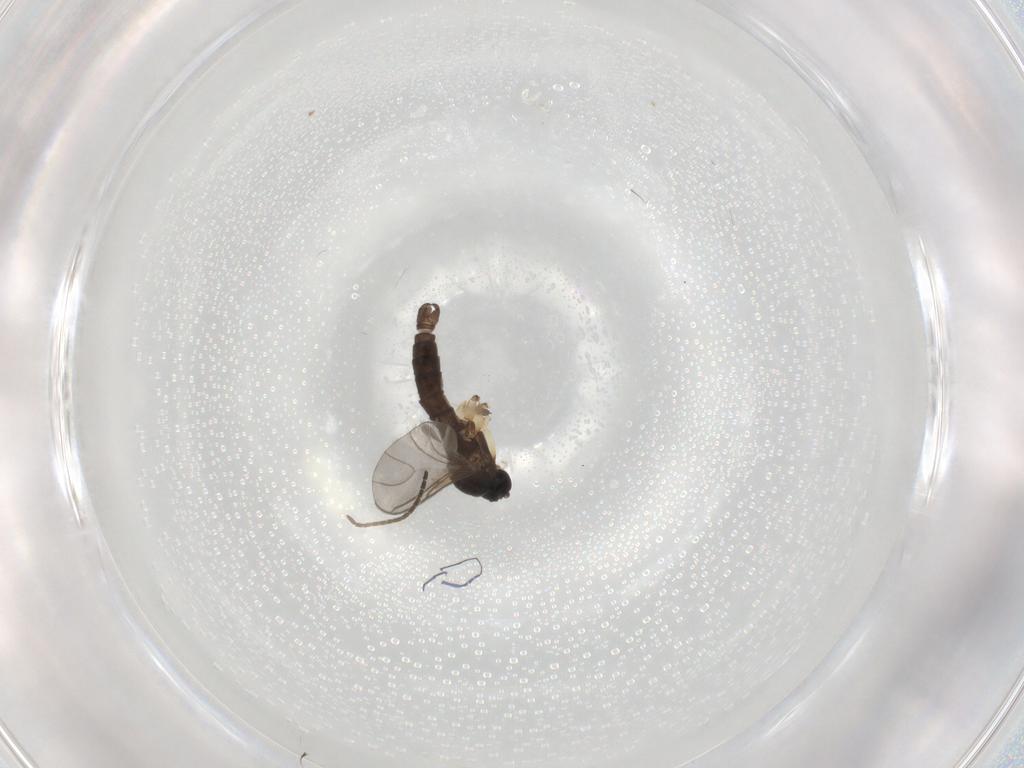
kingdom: Animalia
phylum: Arthropoda
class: Insecta
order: Diptera
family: Sciaridae
